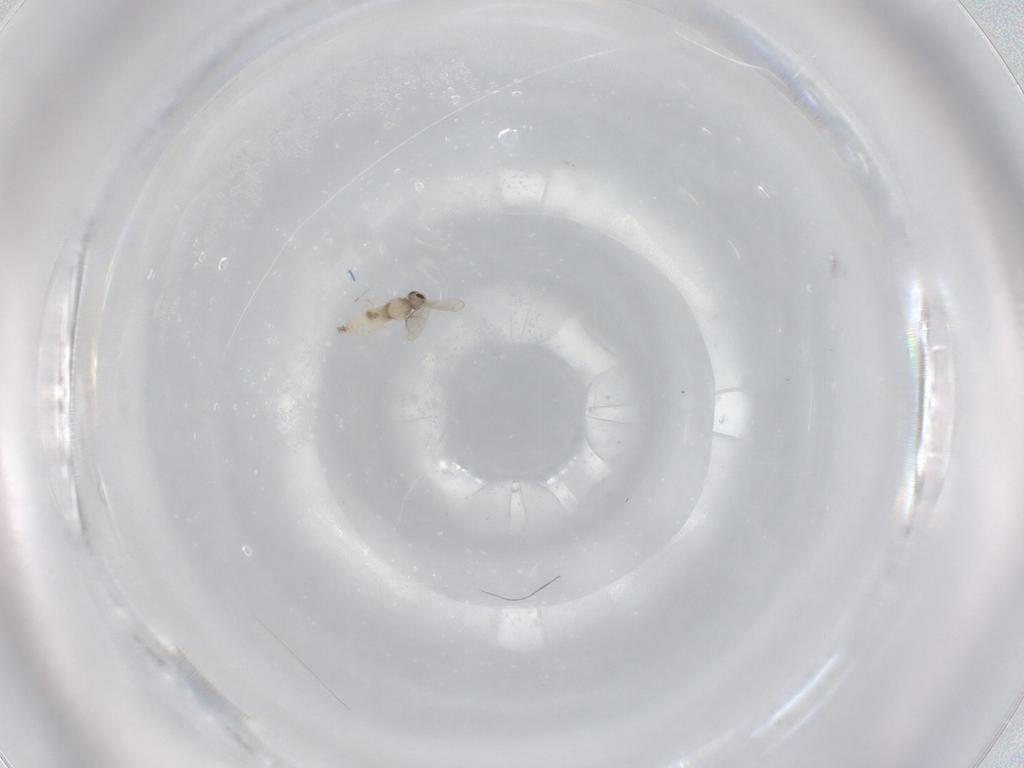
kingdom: Animalia
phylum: Arthropoda
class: Insecta
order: Diptera
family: Cecidomyiidae
